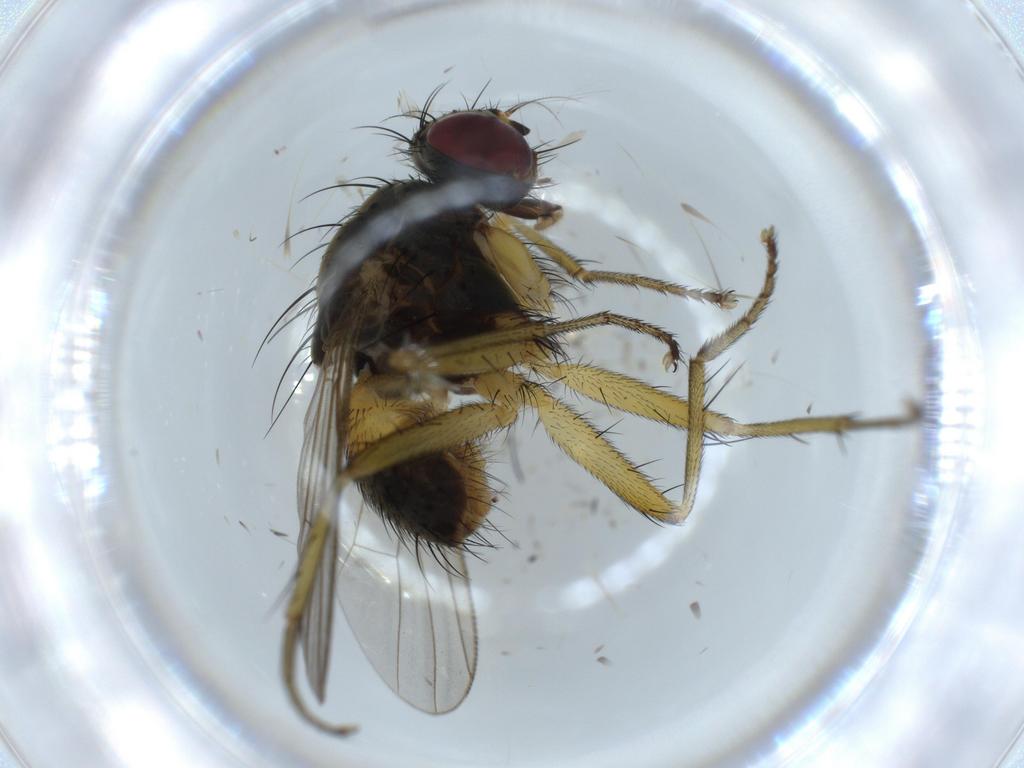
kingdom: Animalia
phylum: Arthropoda
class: Insecta
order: Diptera
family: Muscidae
